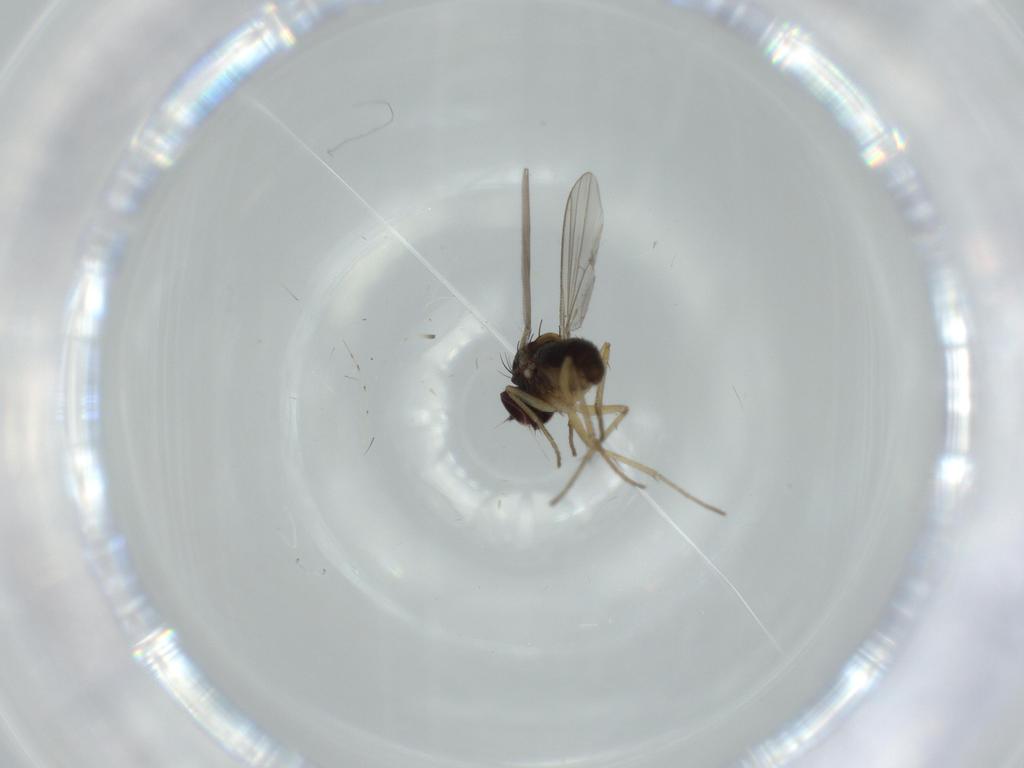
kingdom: Animalia
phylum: Arthropoda
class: Insecta
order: Diptera
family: Dolichopodidae
